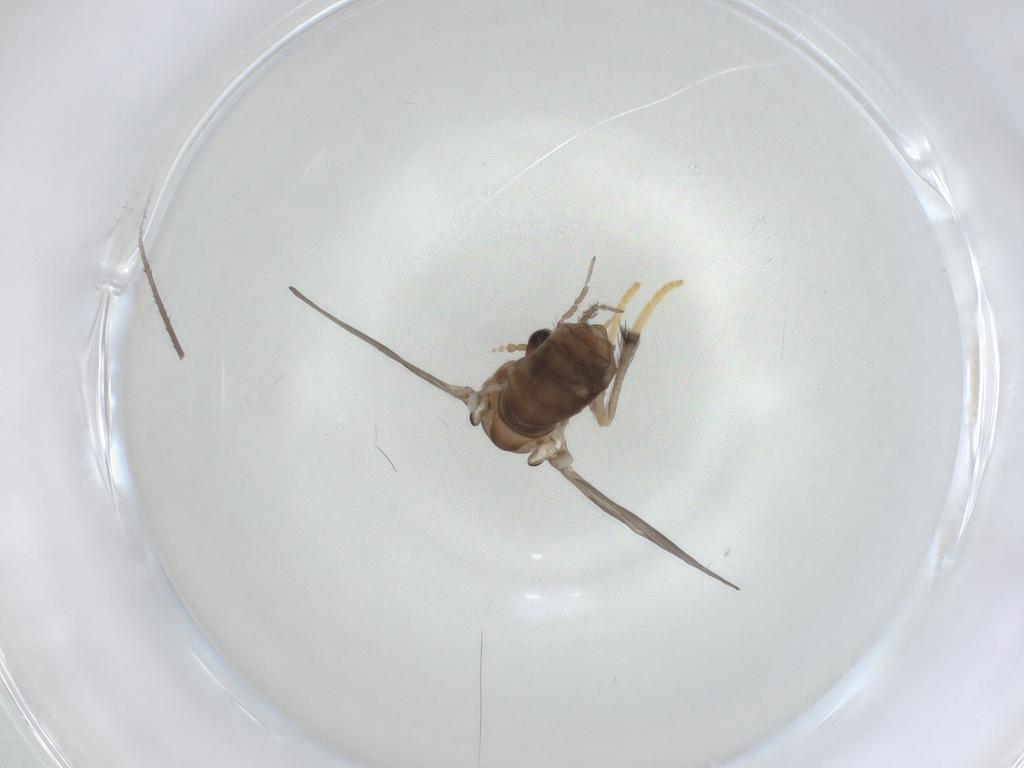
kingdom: Animalia
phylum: Arthropoda
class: Insecta
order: Diptera
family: Psychodidae
